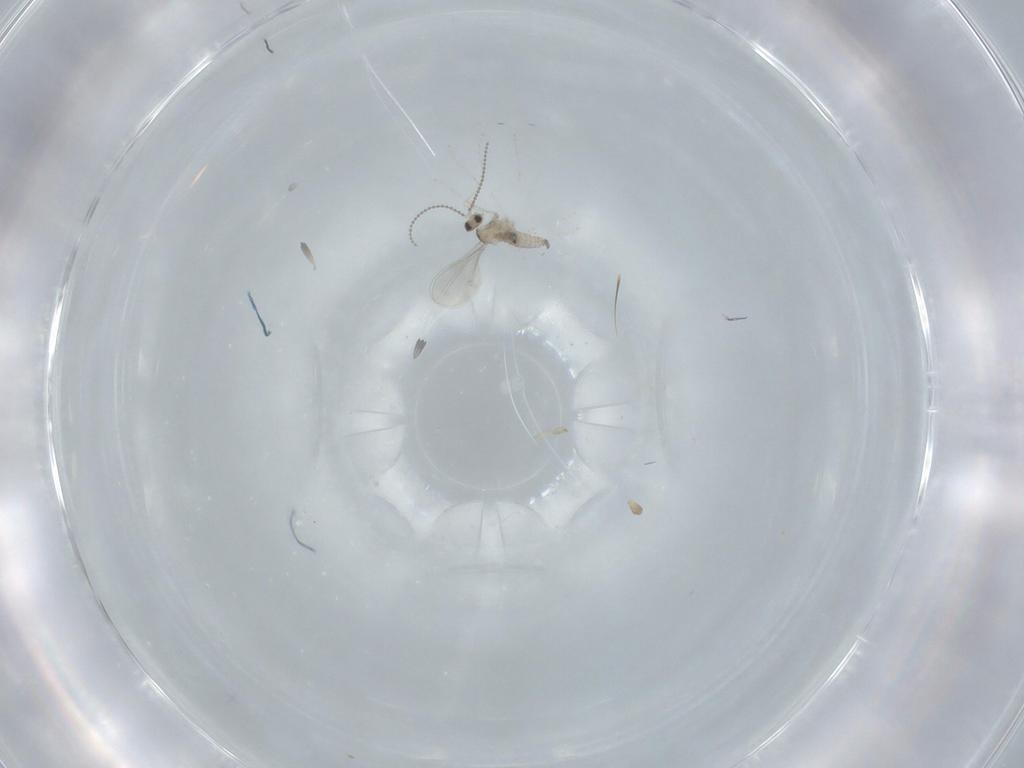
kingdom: Animalia
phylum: Arthropoda
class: Insecta
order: Diptera
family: Cecidomyiidae
